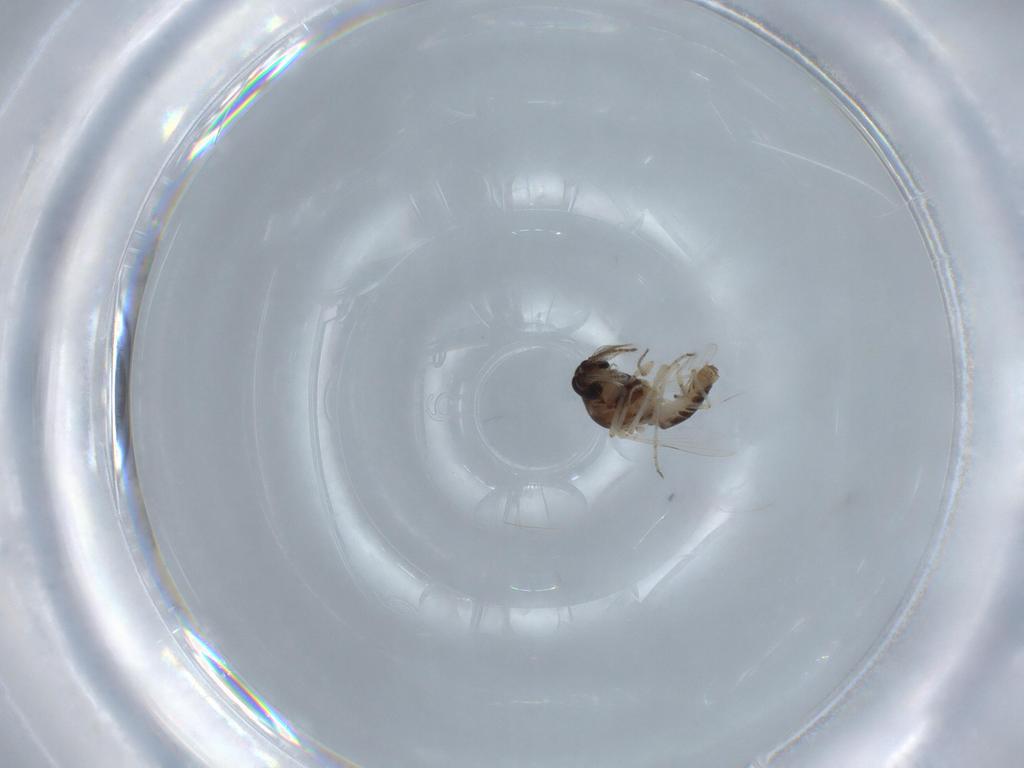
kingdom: Animalia
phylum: Arthropoda
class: Insecta
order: Diptera
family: Ceratopogonidae
